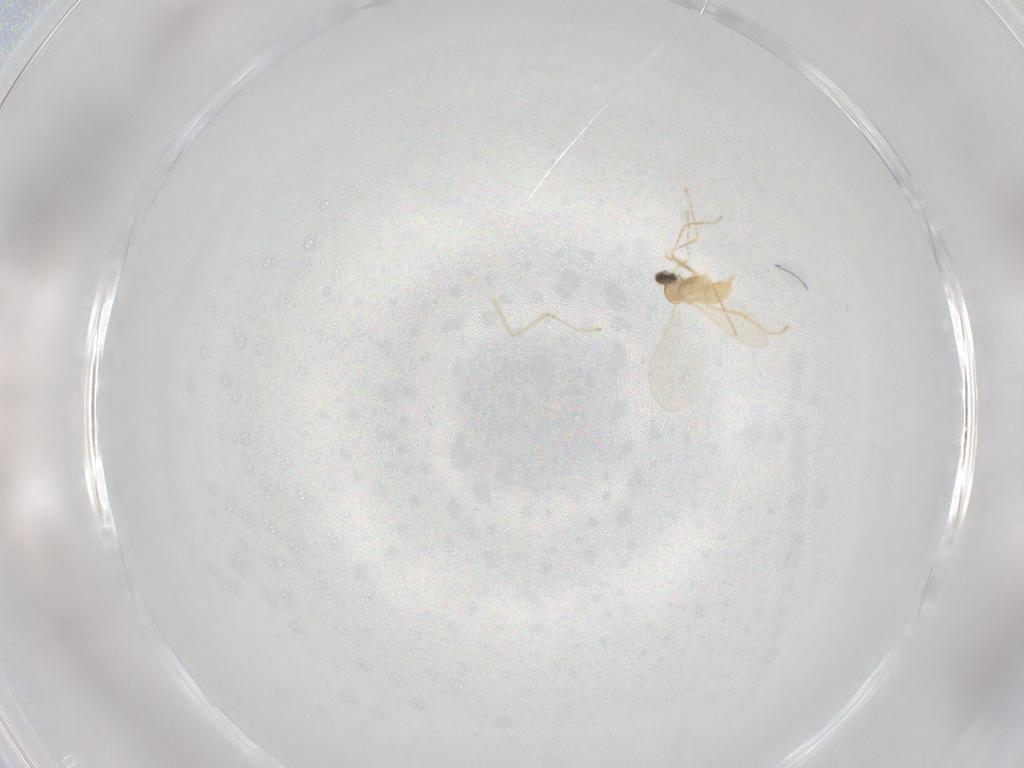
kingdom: Animalia
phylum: Arthropoda
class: Insecta
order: Diptera
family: Cecidomyiidae
